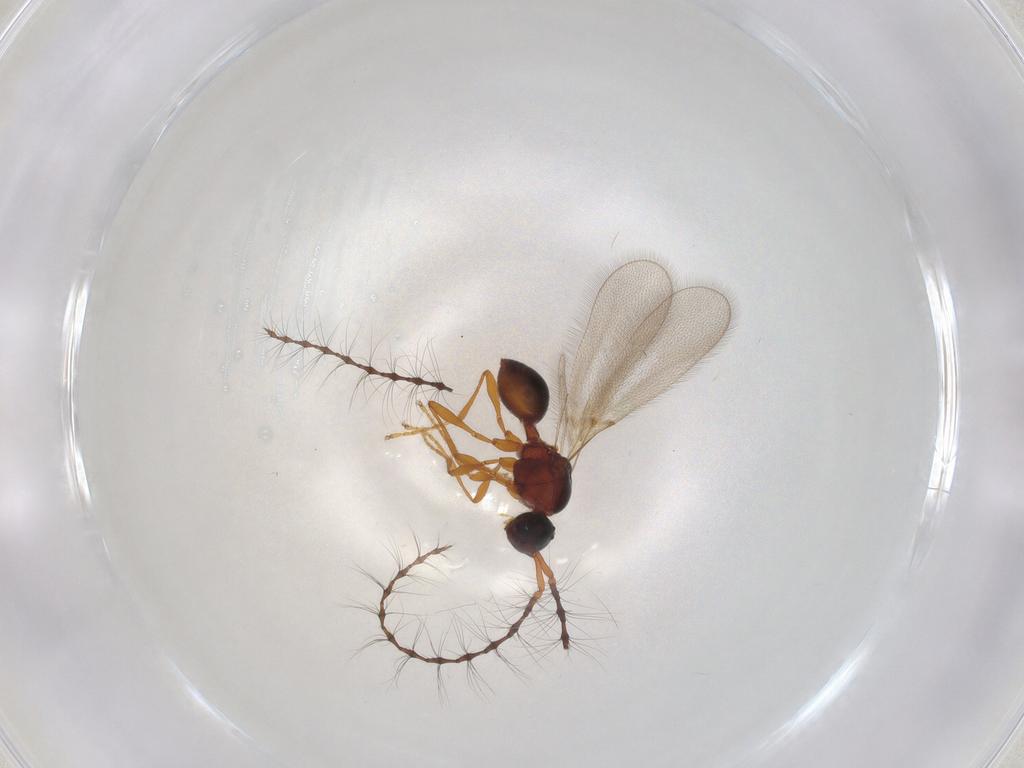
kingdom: Animalia
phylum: Arthropoda
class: Insecta
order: Hymenoptera
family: Diapriidae
